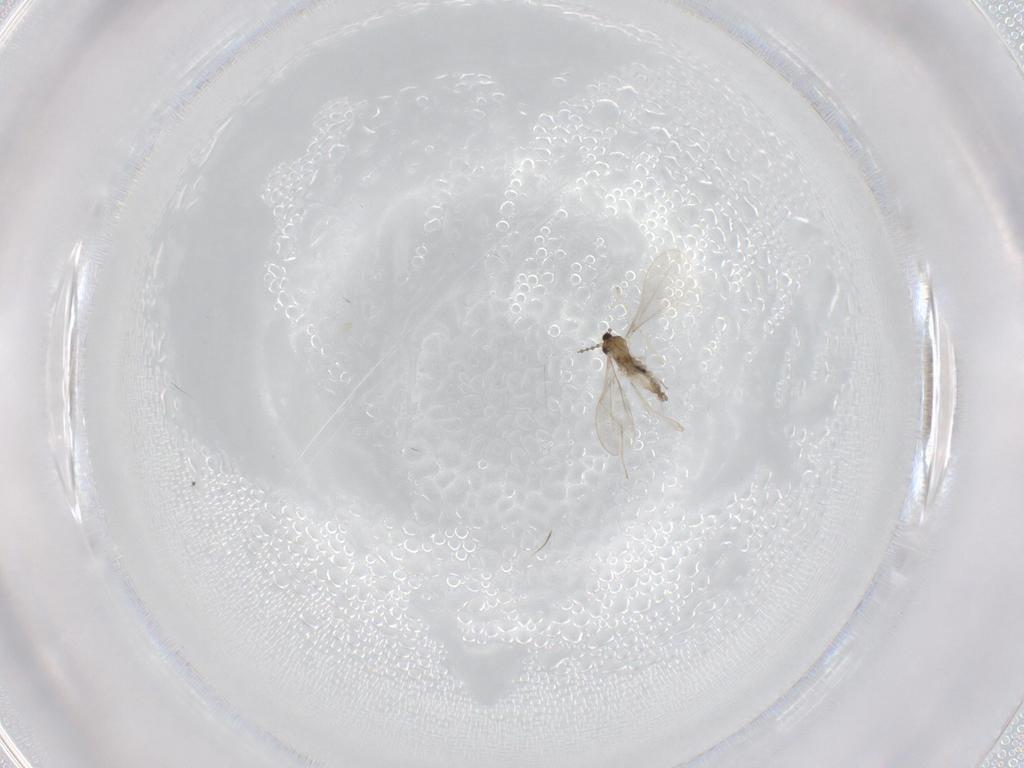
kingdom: Animalia
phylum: Arthropoda
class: Insecta
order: Diptera
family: Cecidomyiidae
